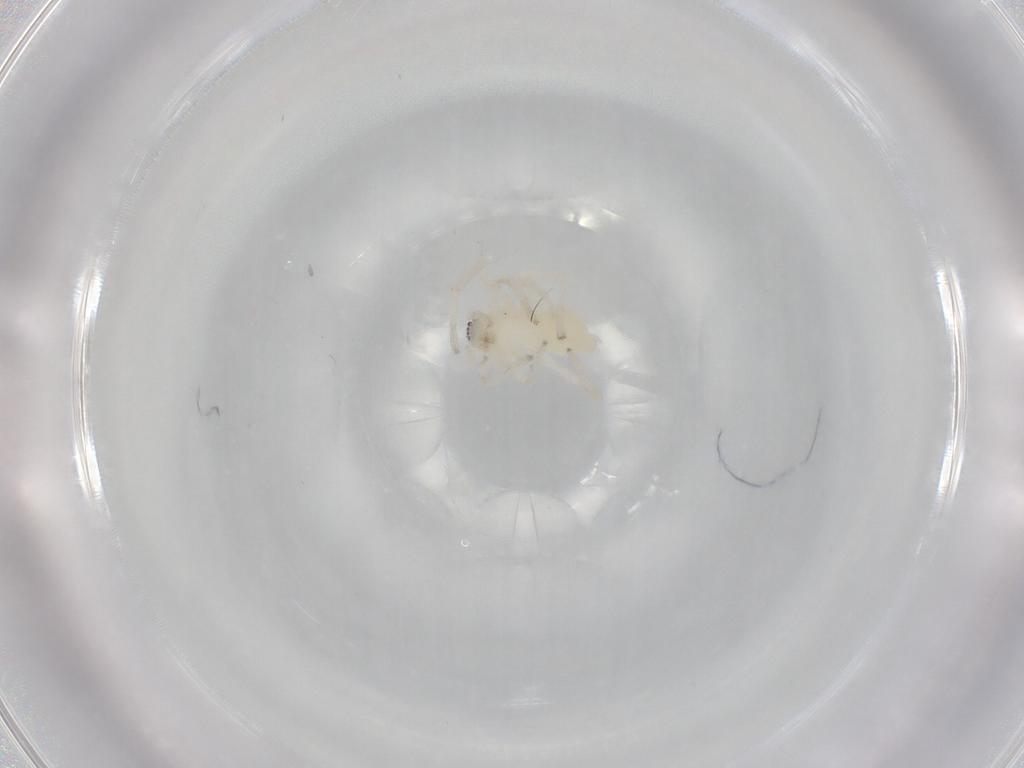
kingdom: Animalia
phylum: Arthropoda
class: Arachnida
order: Araneae
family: Anyphaenidae
